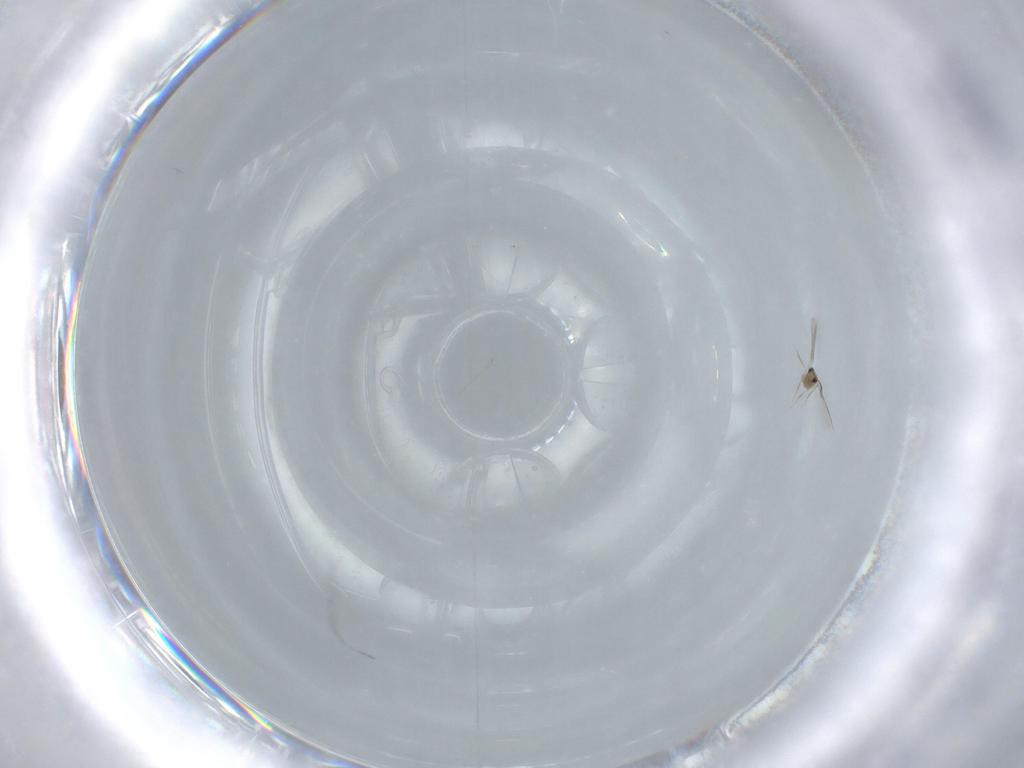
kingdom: Animalia
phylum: Arthropoda
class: Insecta
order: Hymenoptera
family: Mymaridae
